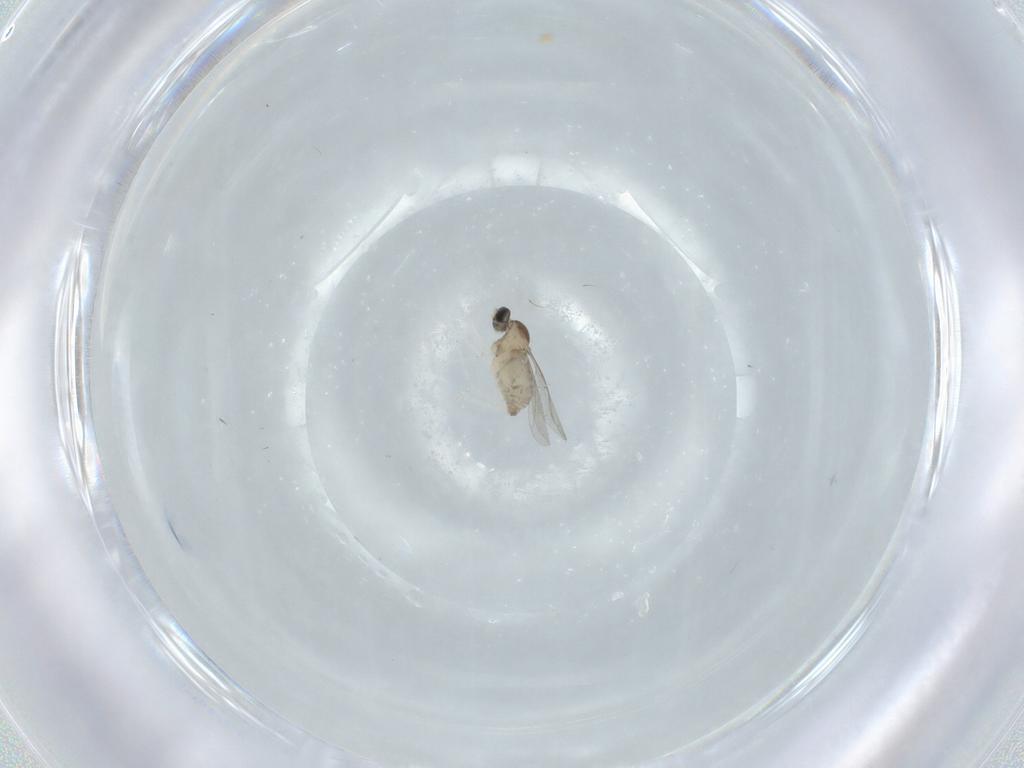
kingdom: Animalia
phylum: Arthropoda
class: Insecta
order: Diptera
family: Cecidomyiidae
